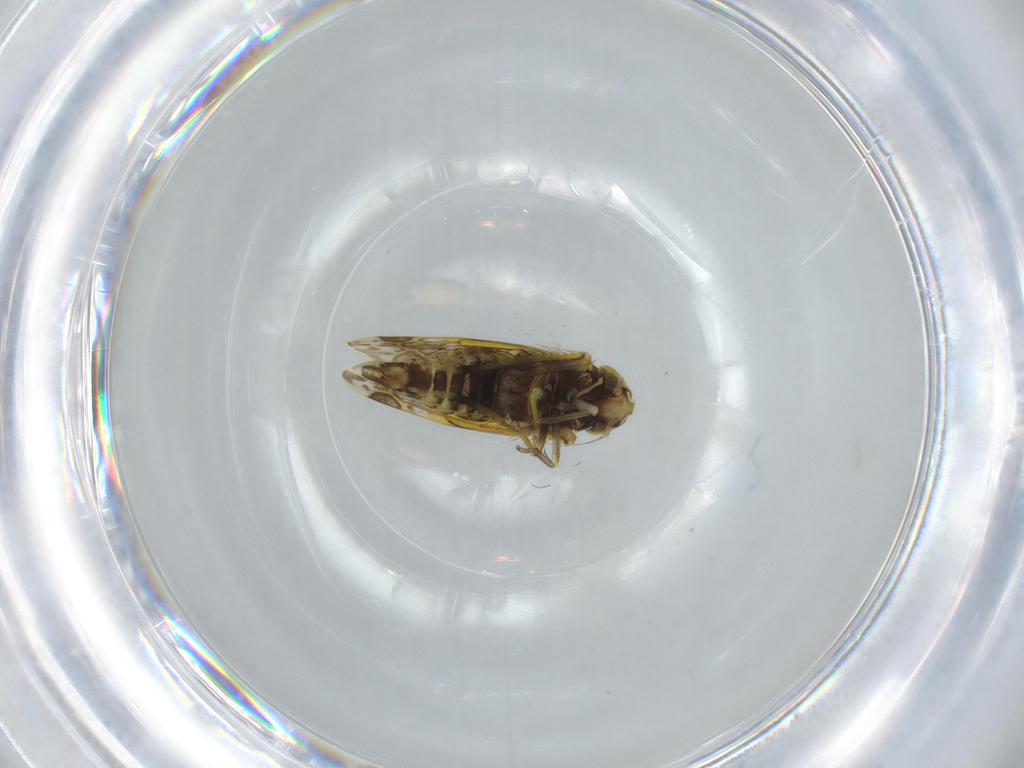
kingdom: Animalia
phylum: Arthropoda
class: Insecta
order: Hemiptera
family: Cicadellidae
